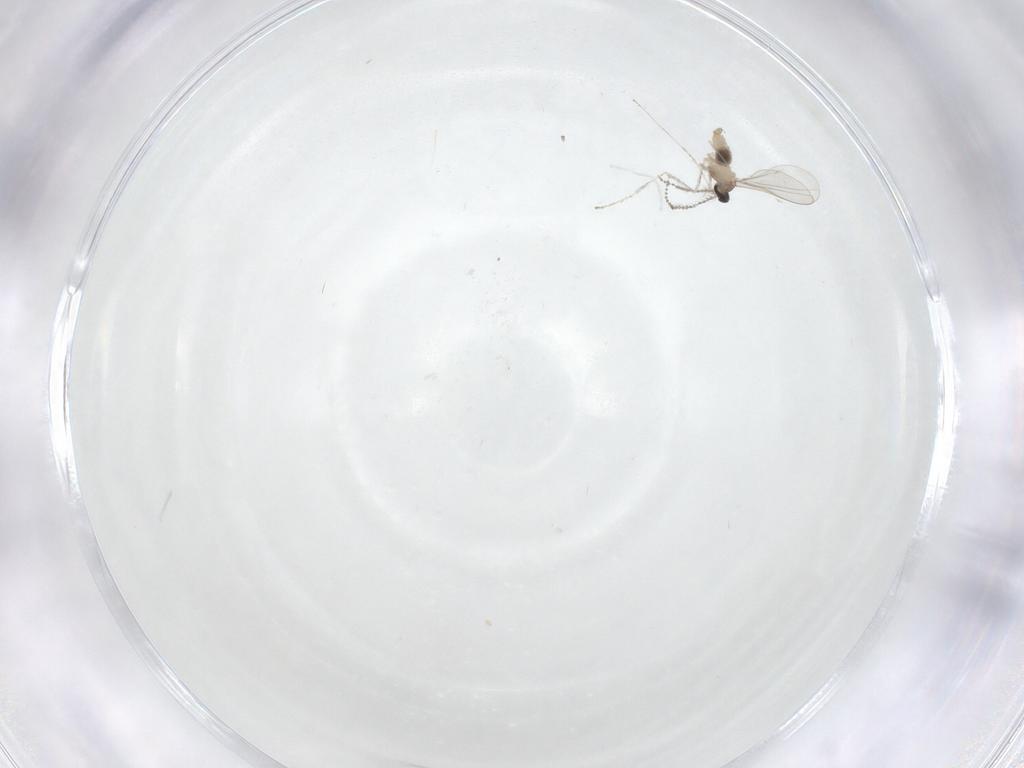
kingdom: Animalia
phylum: Arthropoda
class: Insecta
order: Diptera
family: Cecidomyiidae
